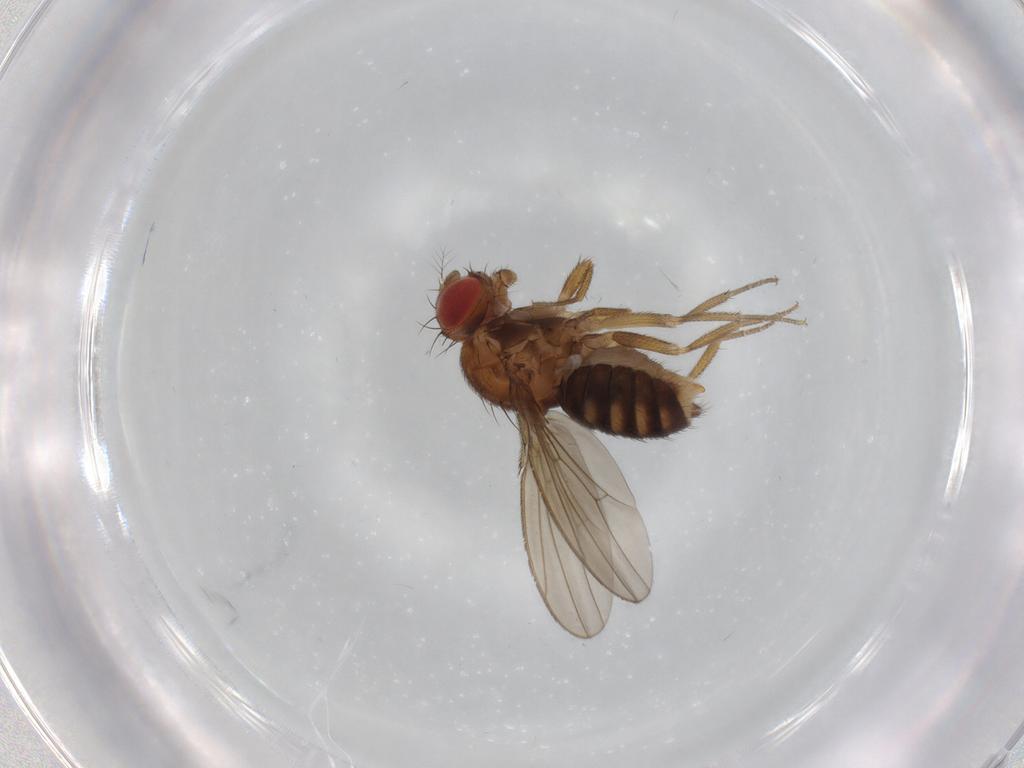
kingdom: Animalia
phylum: Arthropoda
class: Insecta
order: Diptera
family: Drosophilidae
